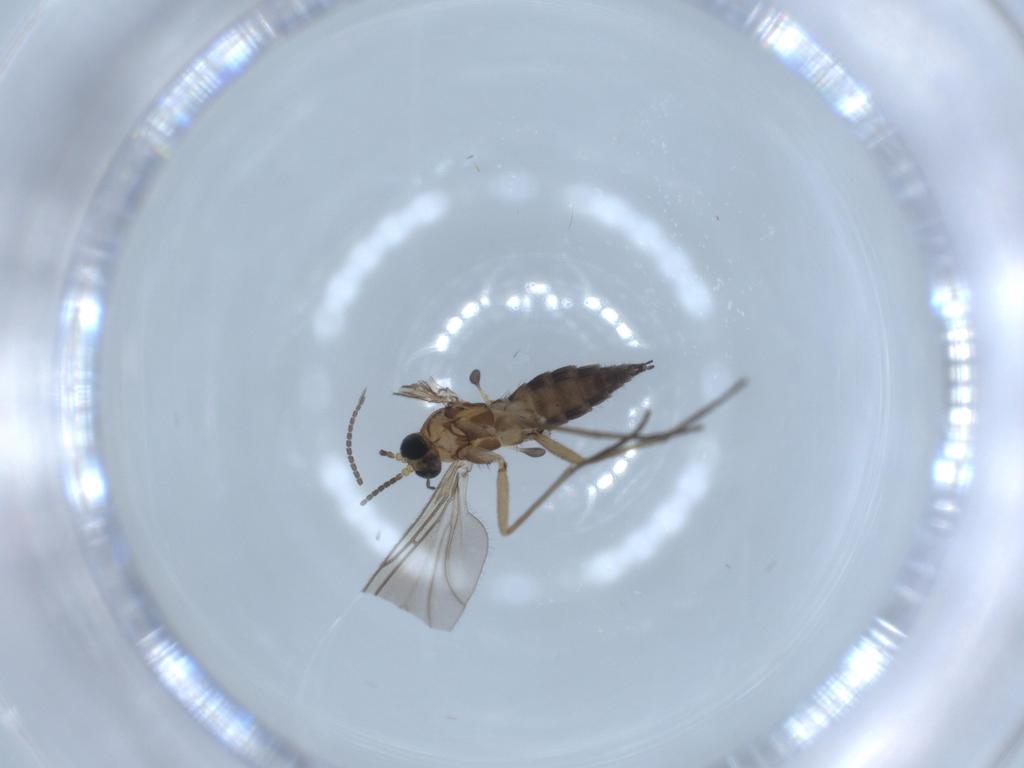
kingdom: Animalia
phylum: Arthropoda
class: Insecta
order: Diptera
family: Sciaridae
